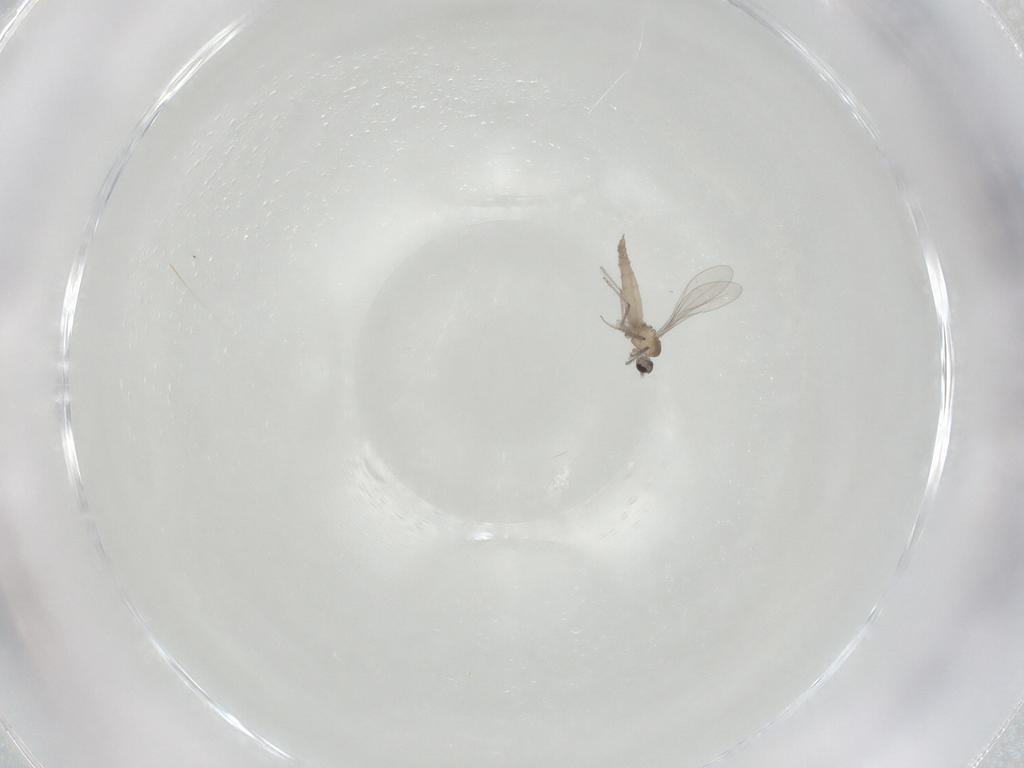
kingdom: Animalia
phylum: Arthropoda
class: Insecta
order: Diptera
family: Cecidomyiidae
